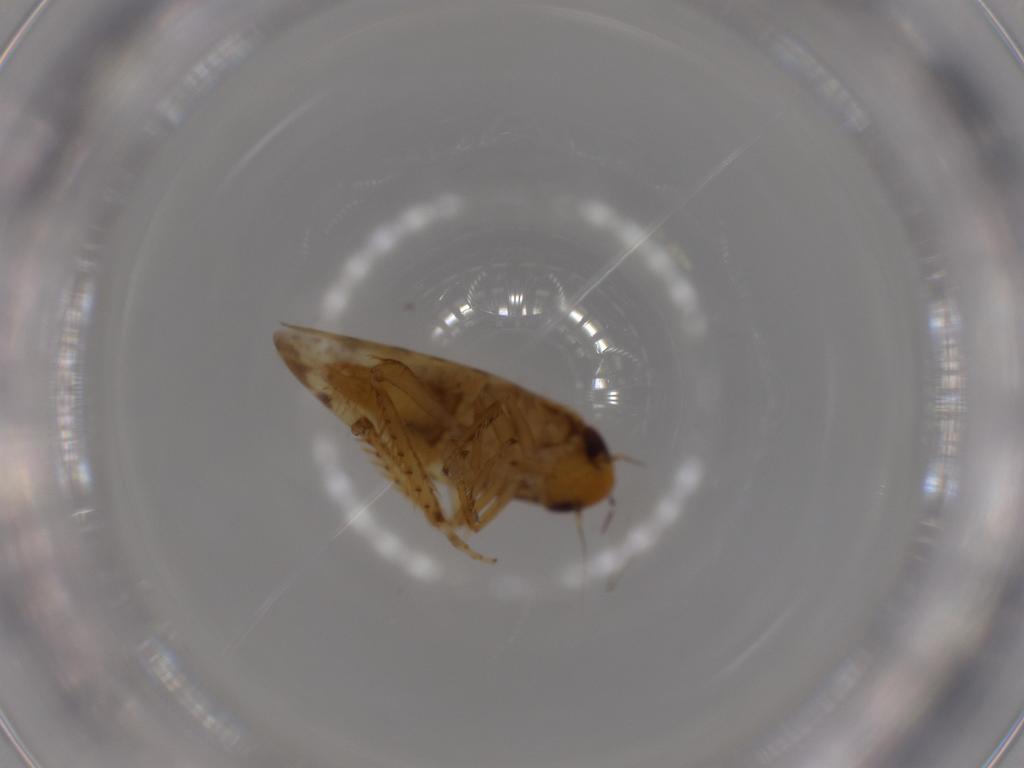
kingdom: Animalia
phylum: Arthropoda
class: Insecta
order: Hemiptera
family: Cicadellidae
